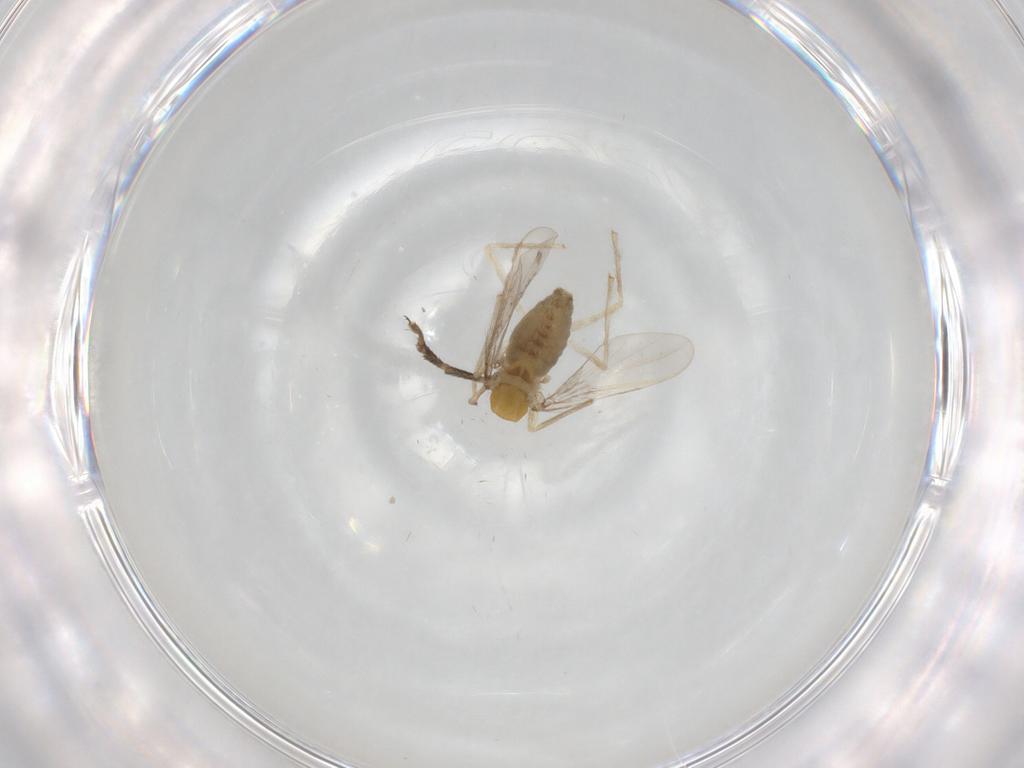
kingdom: Animalia
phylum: Arthropoda
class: Insecta
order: Diptera
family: Chironomidae
